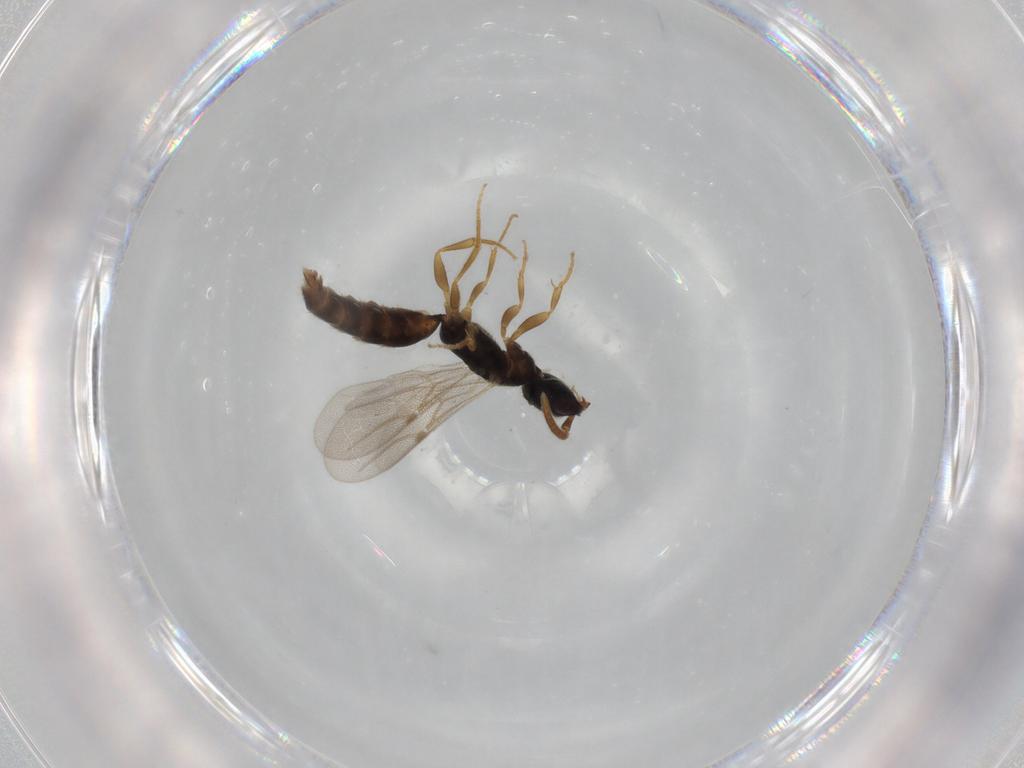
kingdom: Animalia
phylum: Arthropoda
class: Insecta
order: Hymenoptera
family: Bethylidae
